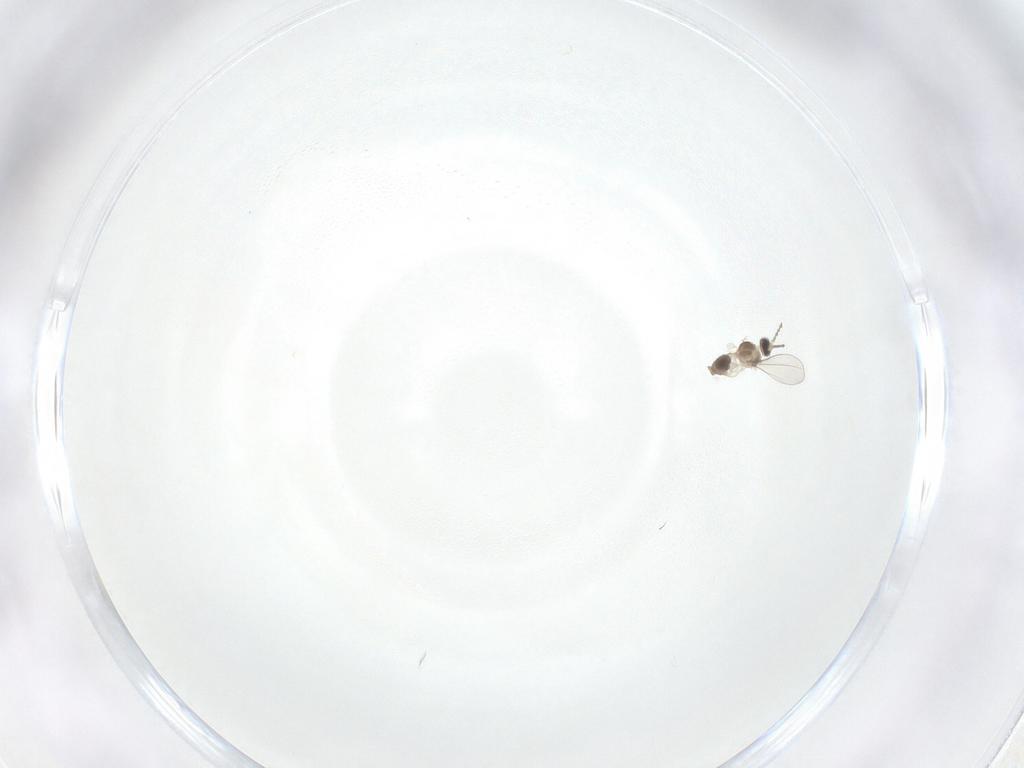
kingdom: Animalia
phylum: Arthropoda
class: Insecta
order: Diptera
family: Cecidomyiidae
